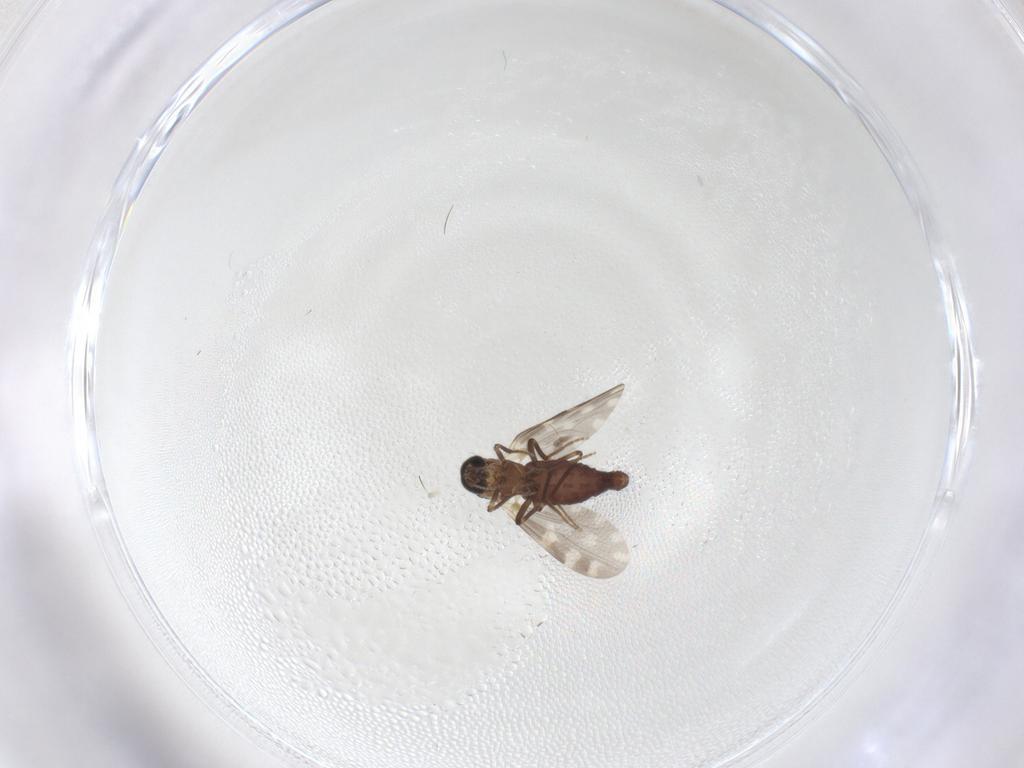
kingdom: Animalia
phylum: Arthropoda
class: Insecta
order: Diptera
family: Ceratopogonidae
